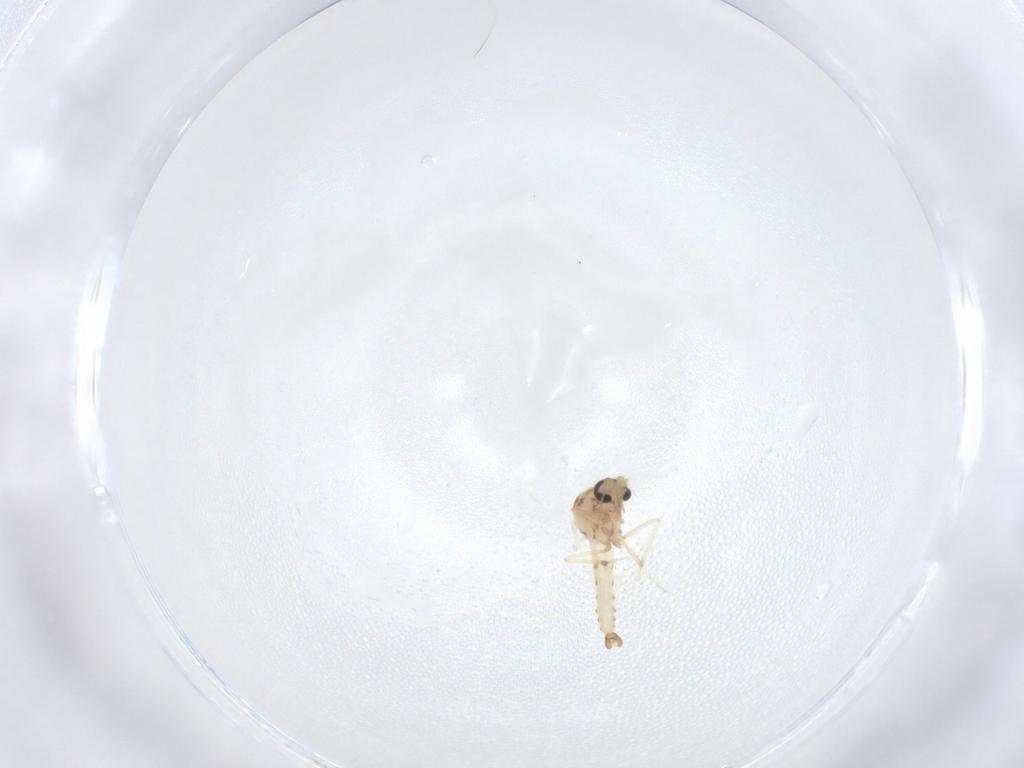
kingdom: Animalia
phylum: Arthropoda
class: Insecta
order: Diptera
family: Ceratopogonidae
